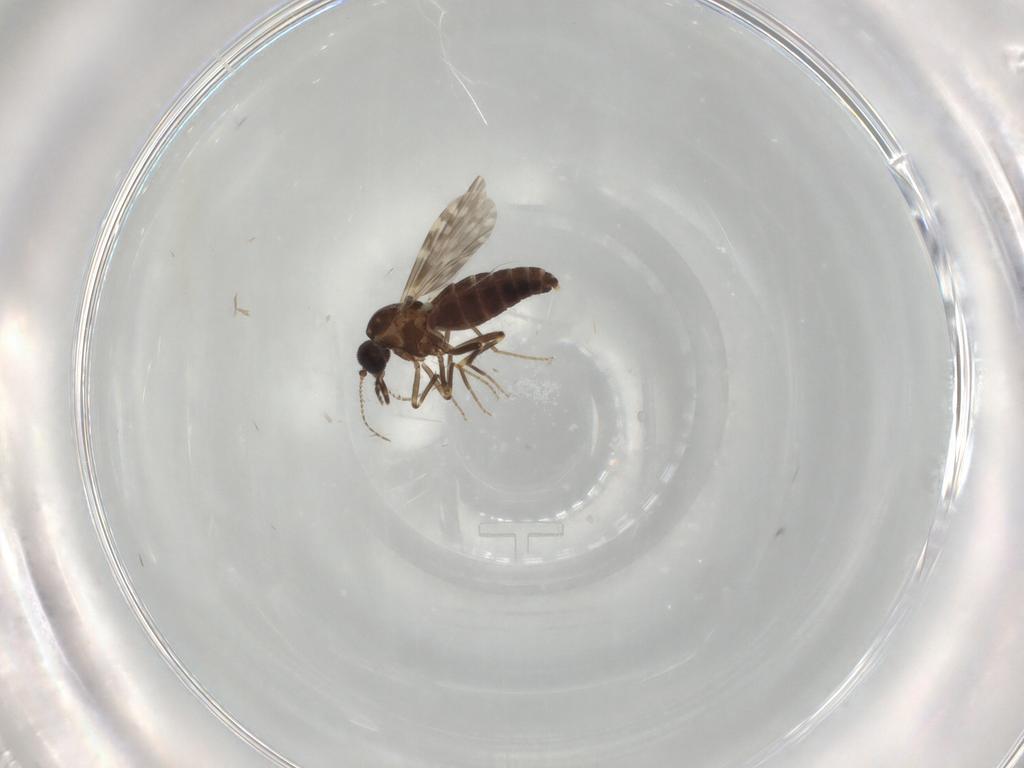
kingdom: Animalia
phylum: Arthropoda
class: Insecta
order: Diptera
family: Ceratopogonidae
